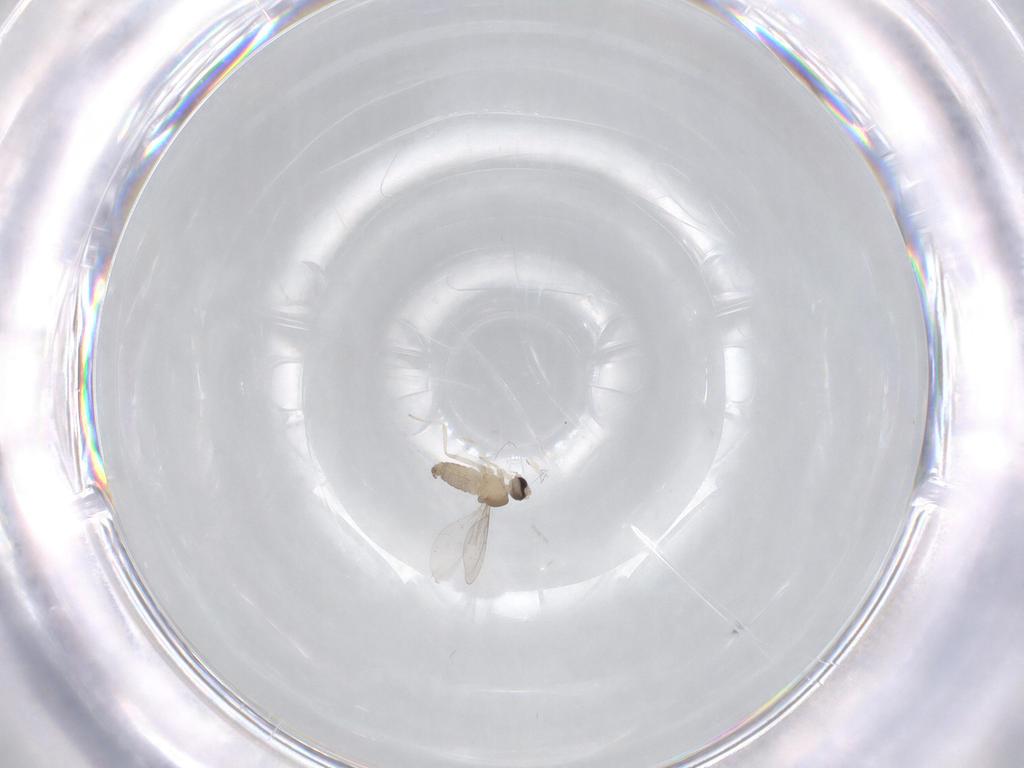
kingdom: Animalia
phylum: Arthropoda
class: Insecta
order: Diptera
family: Cecidomyiidae
